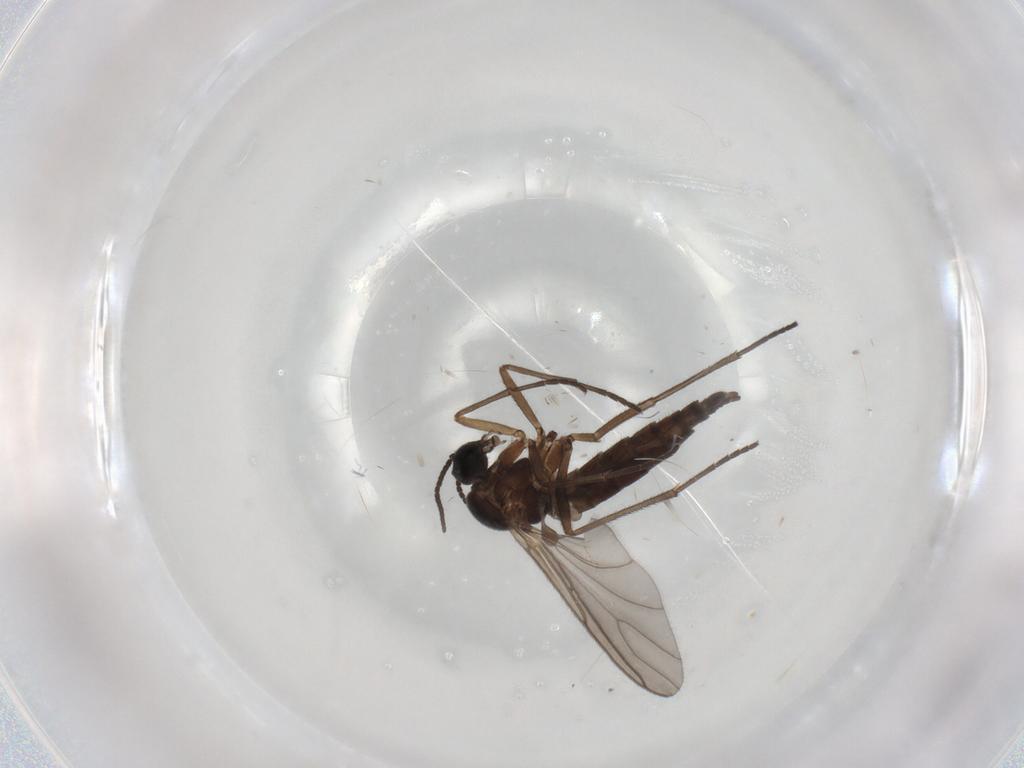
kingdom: Animalia
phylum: Arthropoda
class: Insecta
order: Diptera
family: Sciaridae
